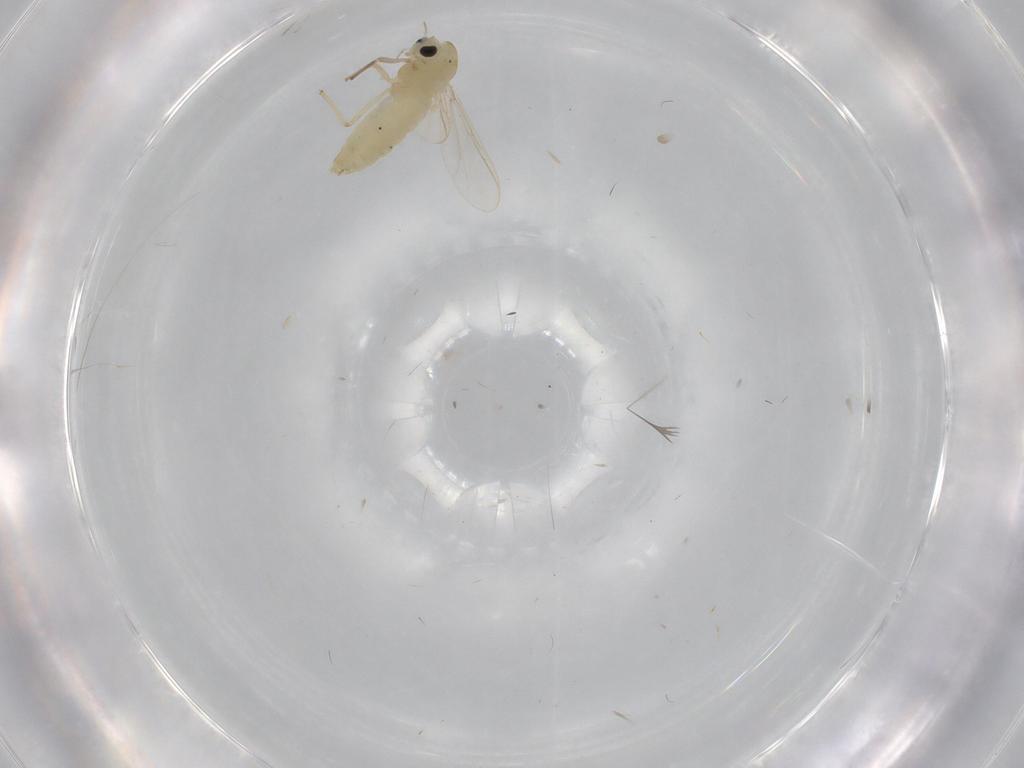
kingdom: Animalia
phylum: Arthropoda
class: Insecta
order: Diptera
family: Chironomidae
